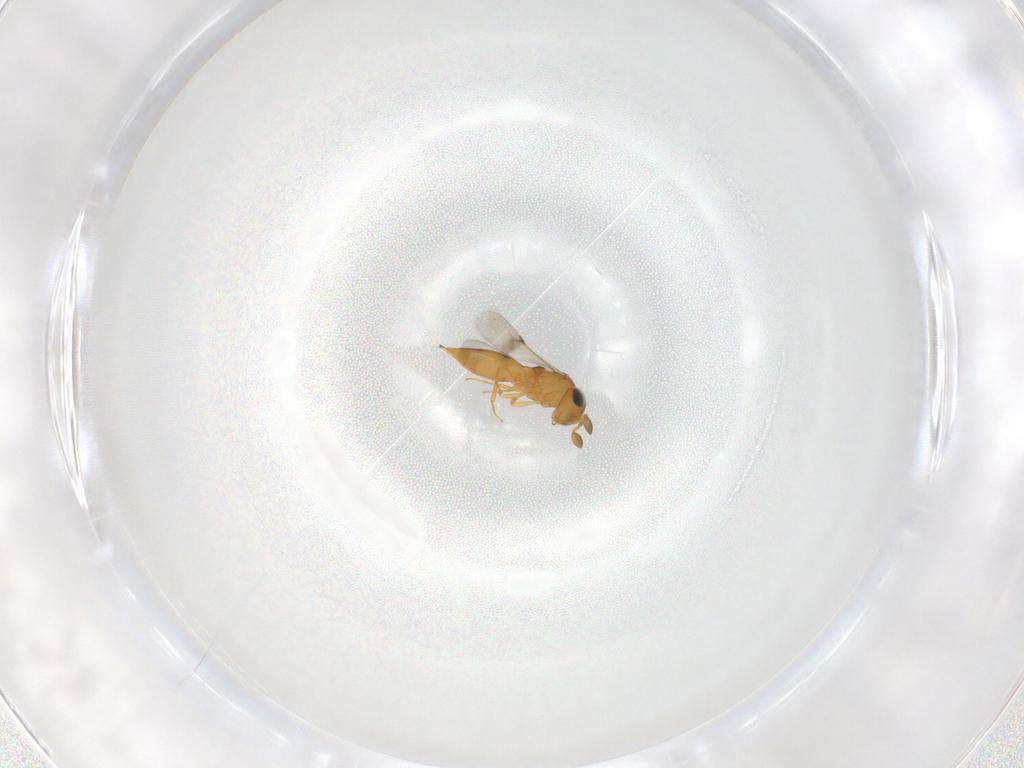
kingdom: Animalia
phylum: Arthropoda
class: Insecta
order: Hymenoptera
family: Scelionidae
